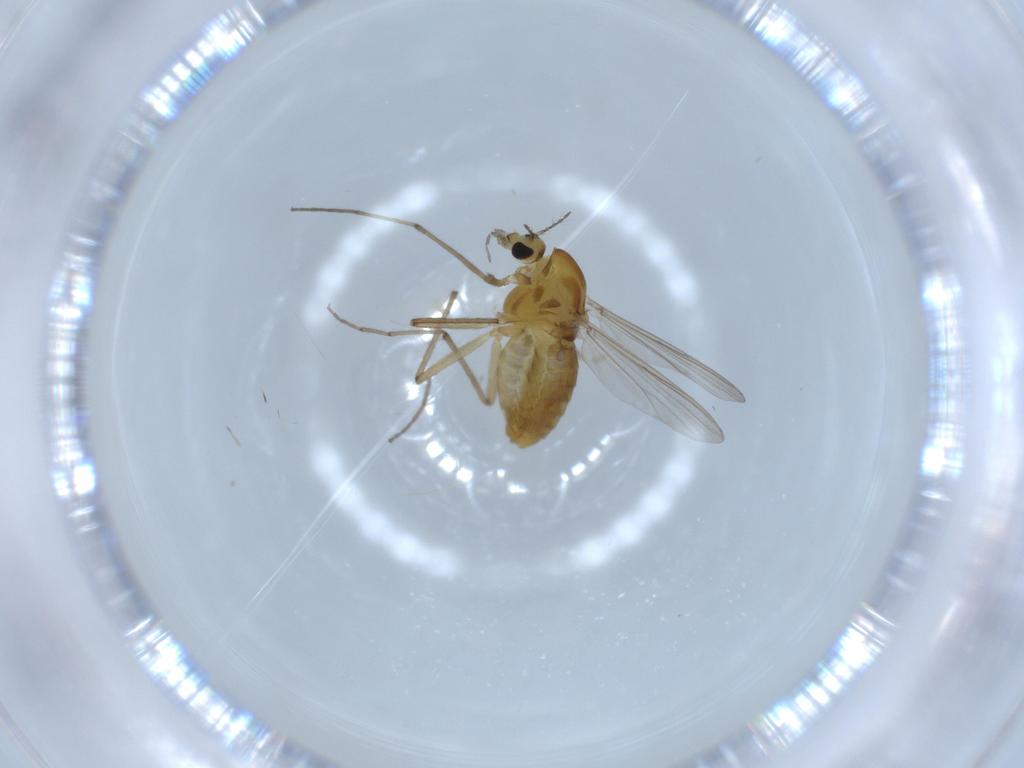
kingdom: Animalia
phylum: Arthropoda
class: Insecta
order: Diptera
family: Chironomidae
